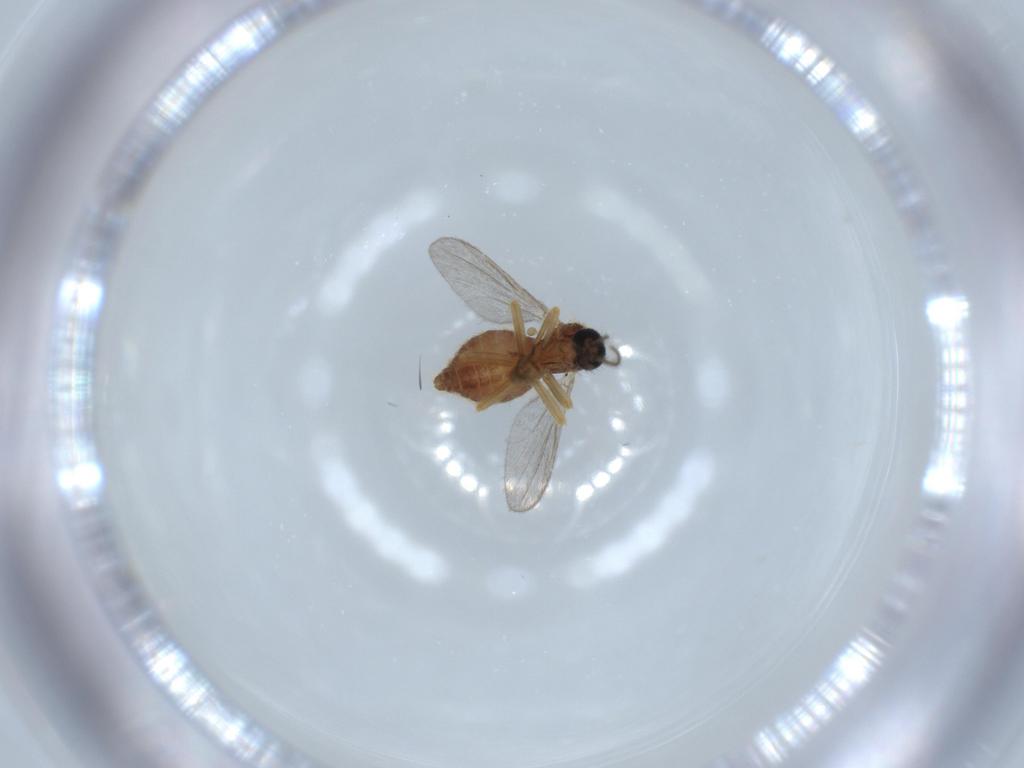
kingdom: Animalia
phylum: Arthropoda
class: Insecta
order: Diptera
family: Ceratopogonidae
